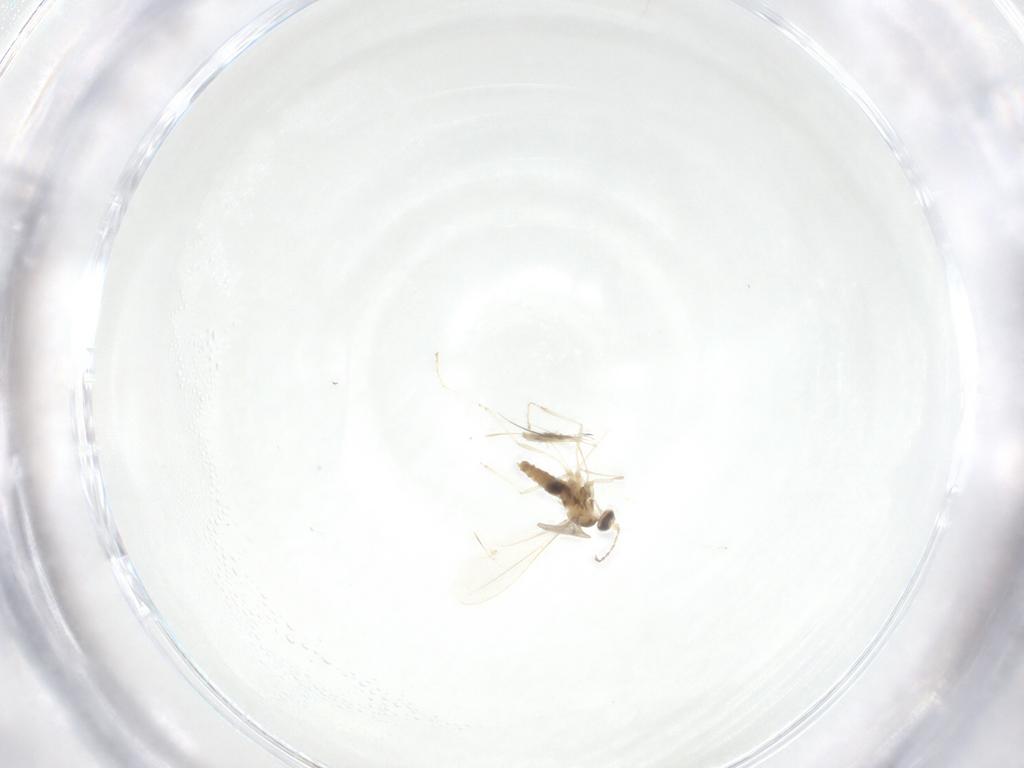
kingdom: Animalia
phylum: Arthropoda
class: Insecta
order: Diptera
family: Cecidomyiidae
